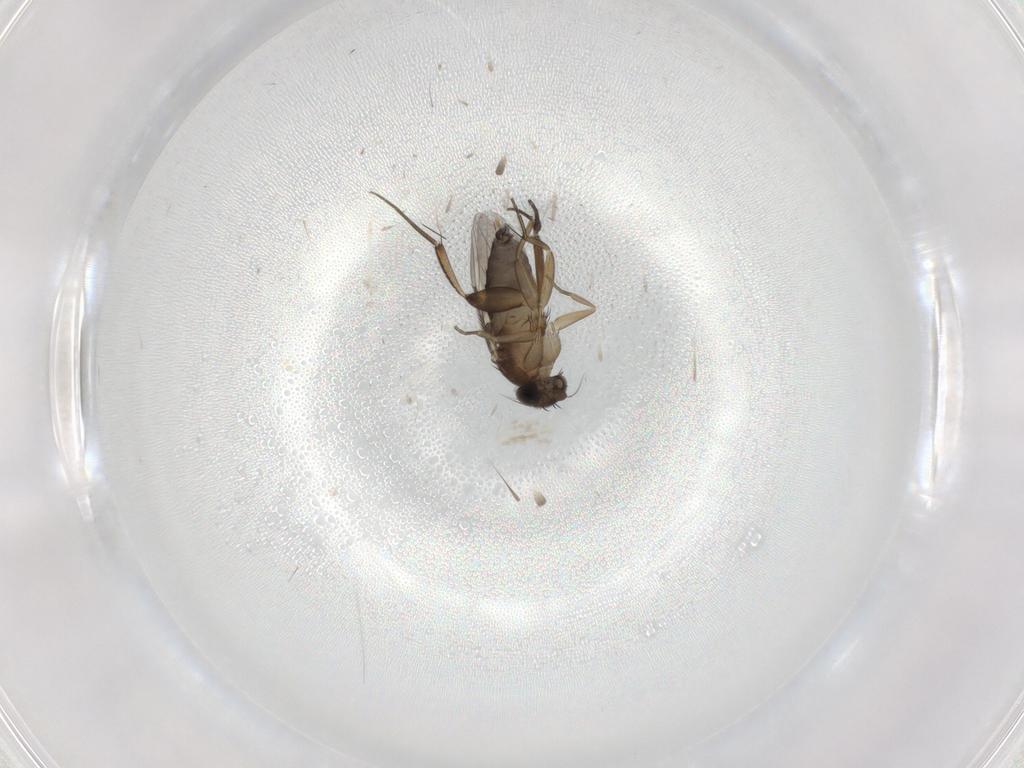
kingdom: Animalia
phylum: Arthropoda
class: Insecta
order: Diptera
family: Phoridae
